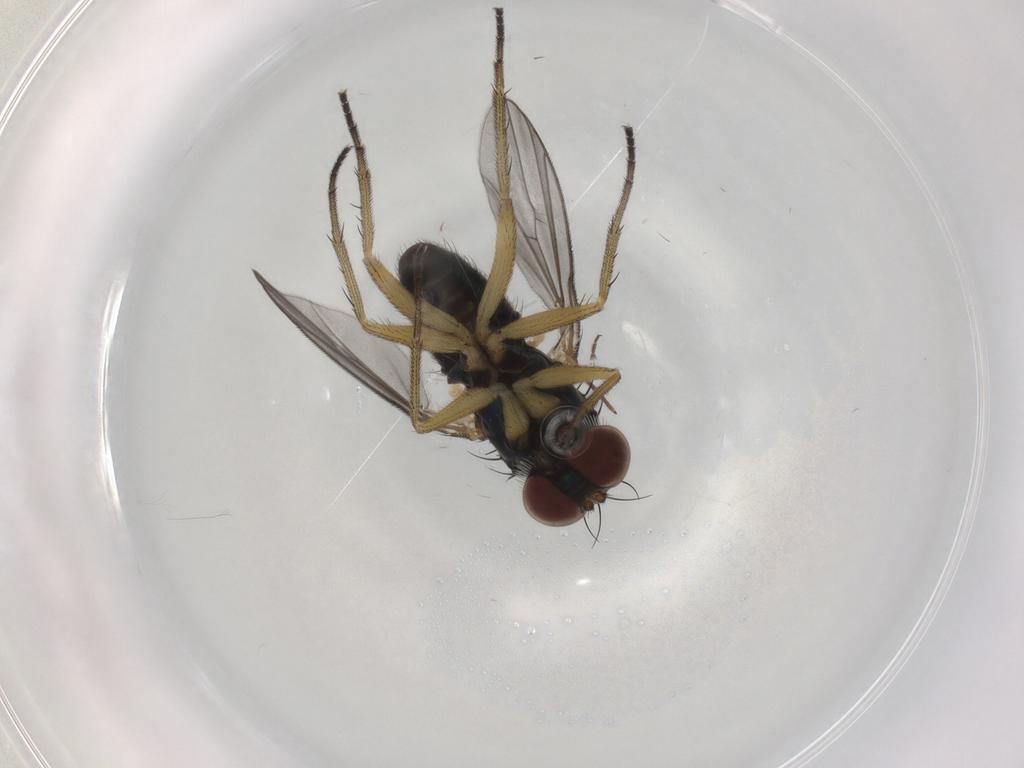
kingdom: Animalia
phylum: Arthropoda
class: Insecta
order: Diptera
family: Dolichopodidae
